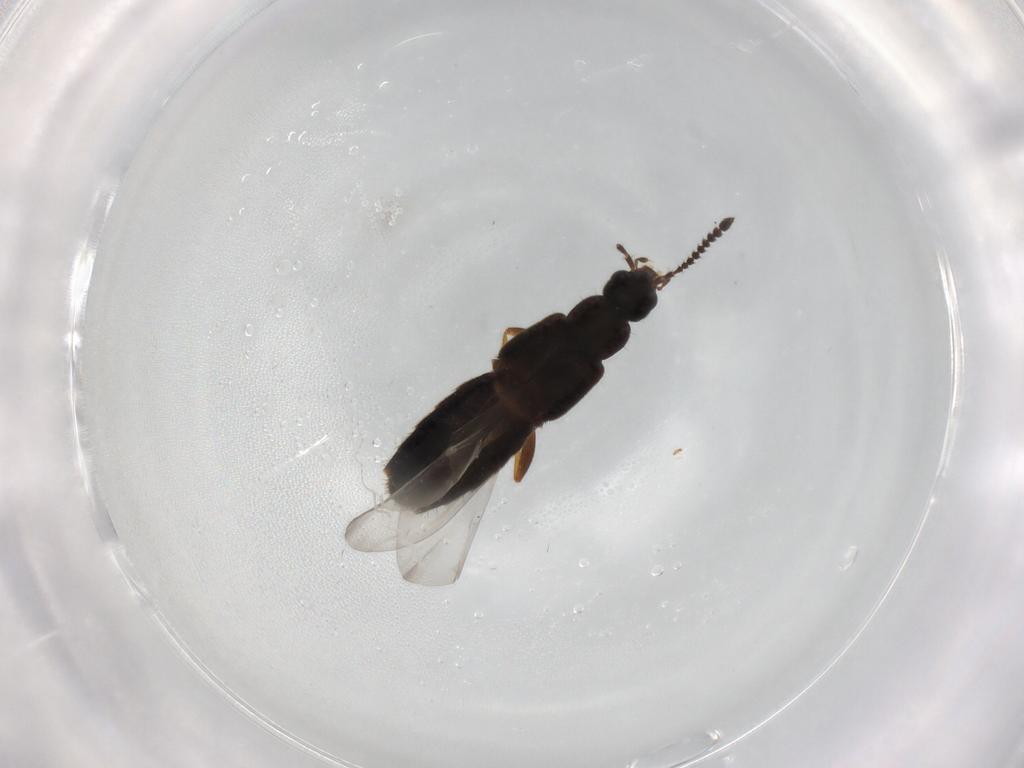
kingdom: Animalia
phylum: Arthropoda
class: Insecta
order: Coleoptera
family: Staphylinidae
